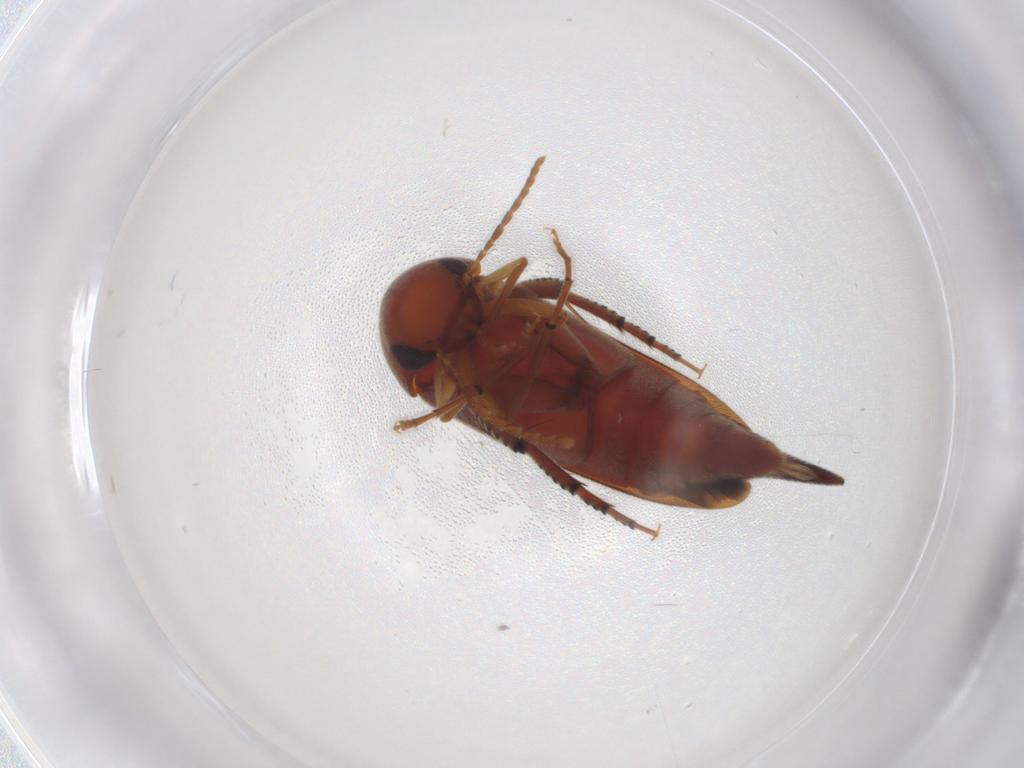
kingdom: Animalia
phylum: Arthropoda
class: Insecta
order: Coleoptera
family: Mordellidae
